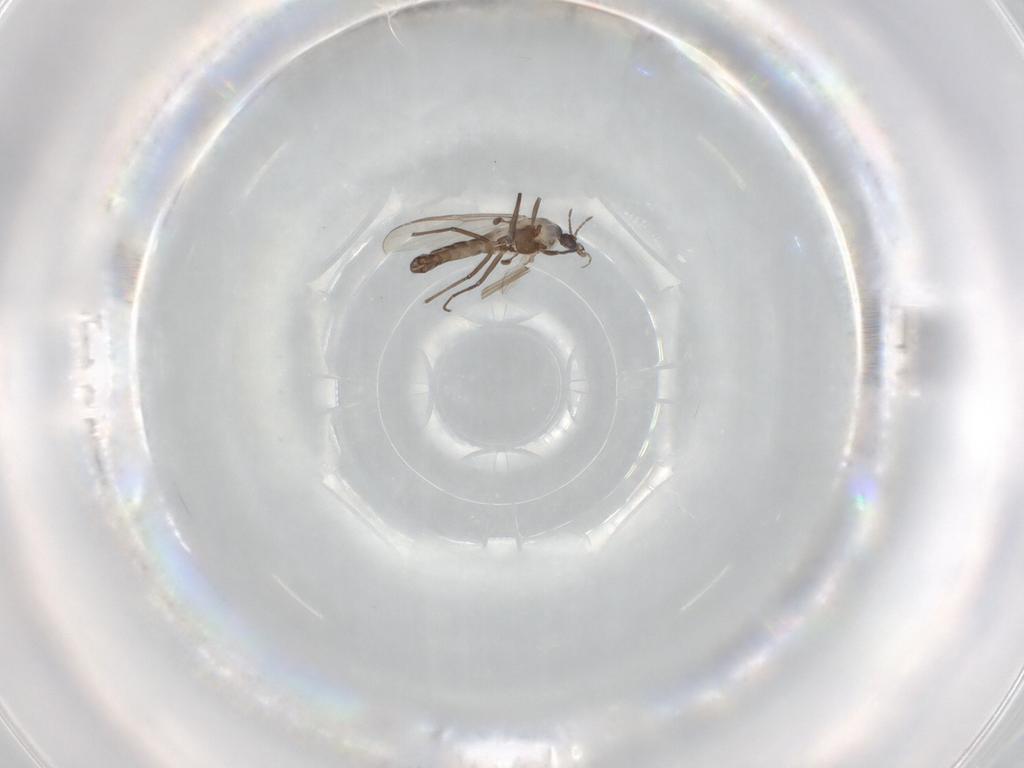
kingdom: Animalia
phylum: Arthropoda
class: Insecta
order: Diptera
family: Chironomidae
